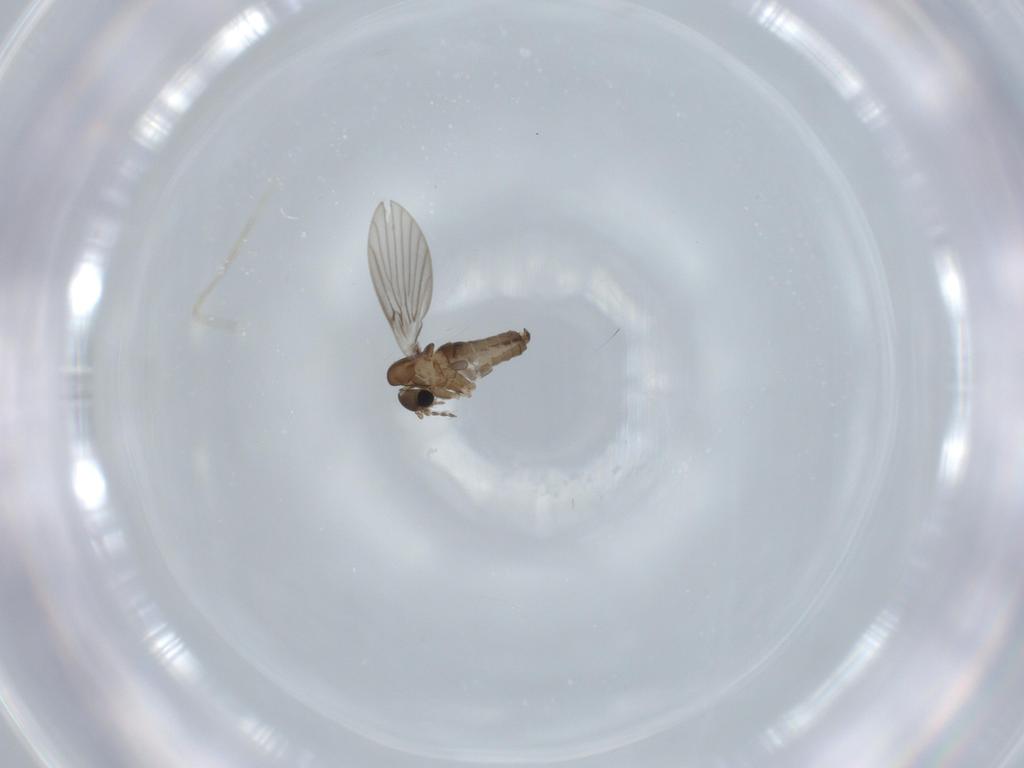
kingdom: Animalia
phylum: Arthropoda
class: Insecta
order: Diptera
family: Psychodidae
